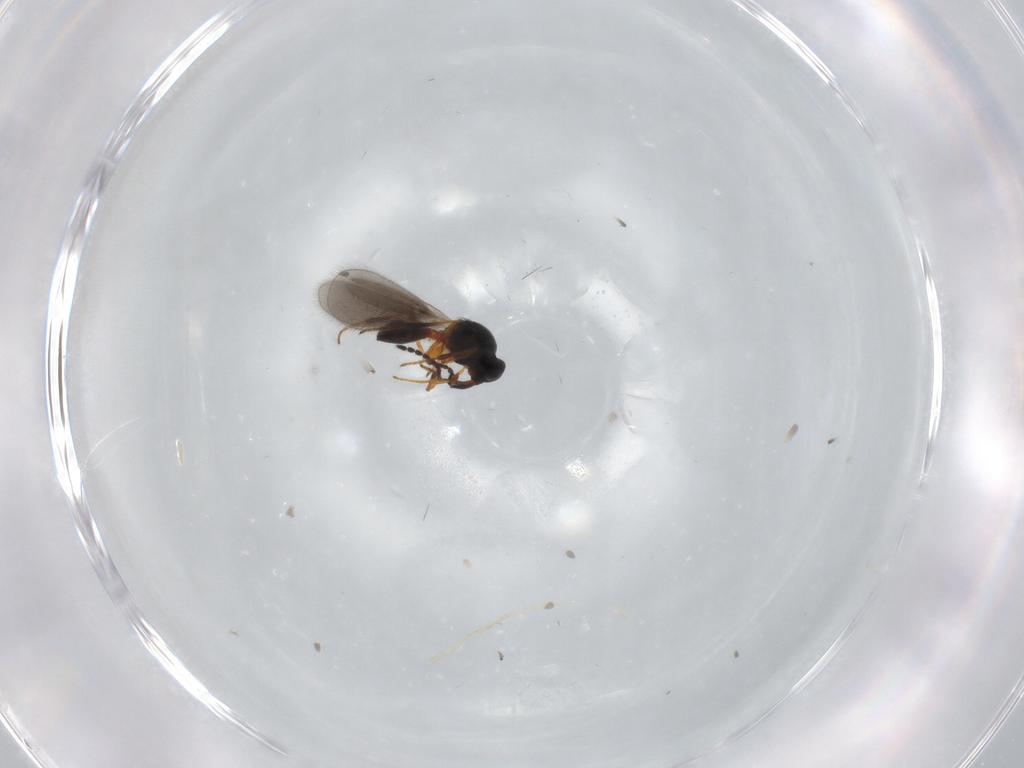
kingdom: Animalia
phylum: Arthropoda
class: Insecta
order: Hymenoptera
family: Platygastridae
